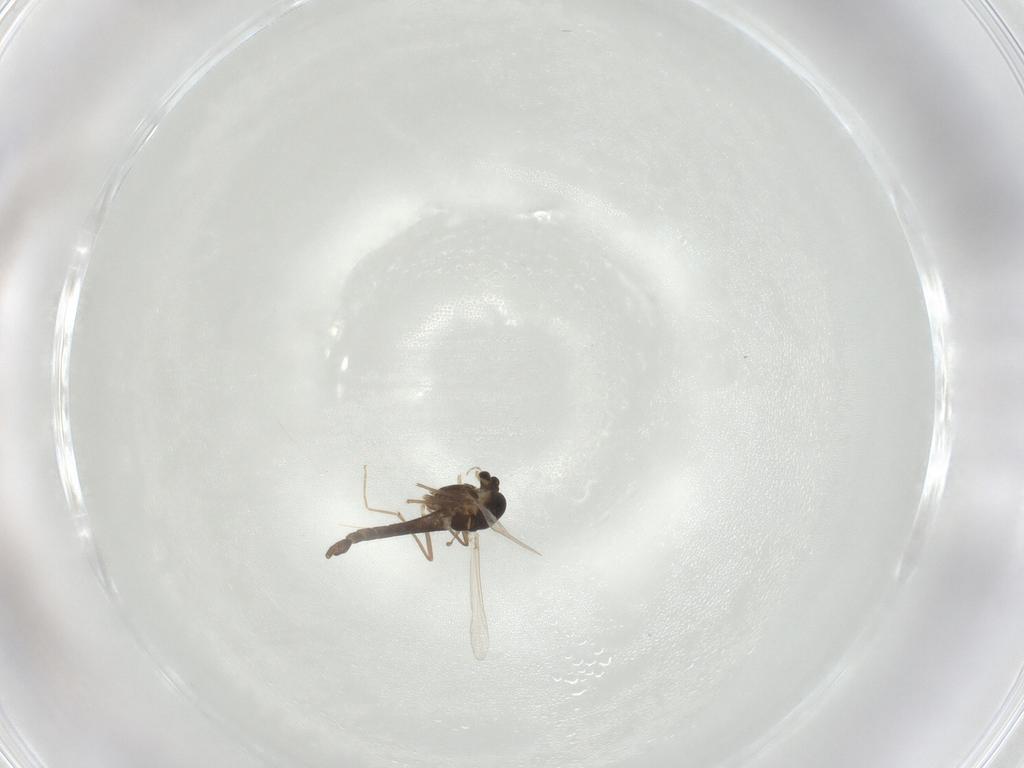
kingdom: Animalia
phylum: Arthropoda
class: Insecta
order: Diptera
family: Chironomidae
